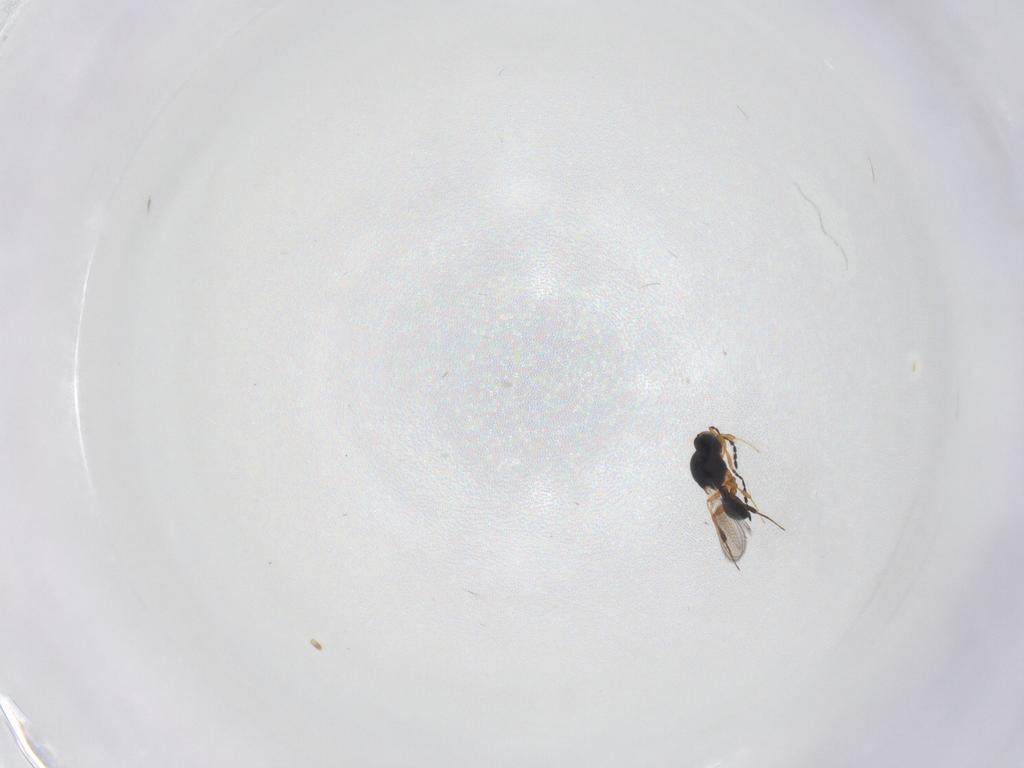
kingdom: Animalia
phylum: Arthropoda
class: Insecta
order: Hymenoptera
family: Platygastridae
